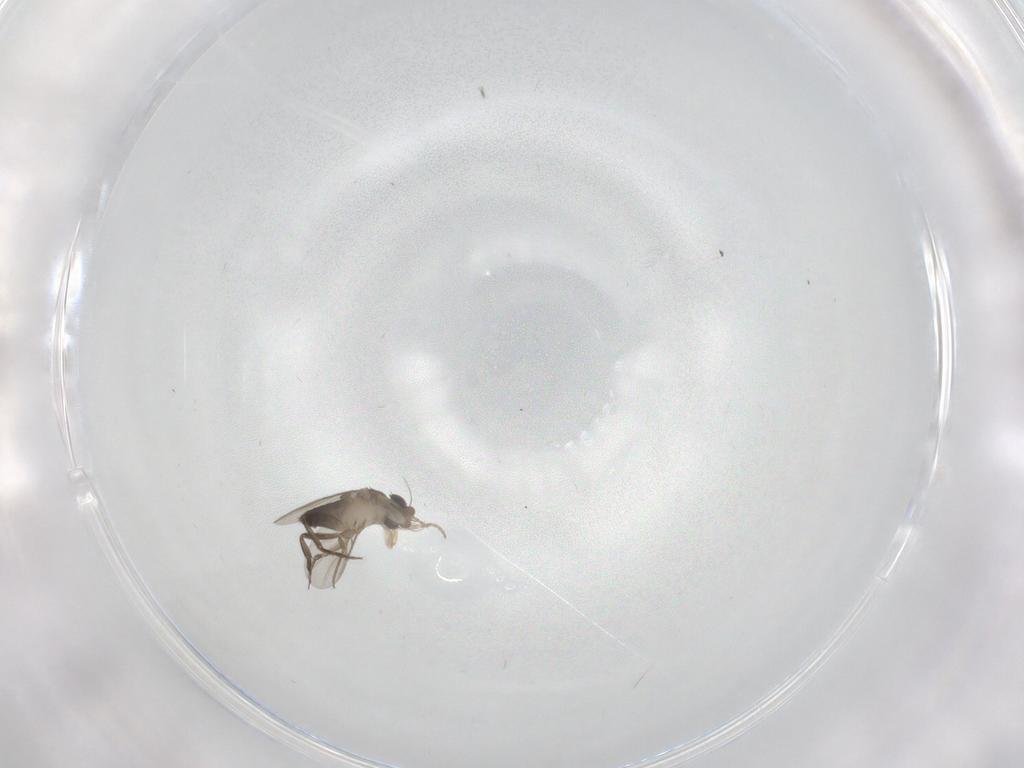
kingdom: Animalia
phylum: Arthropoda
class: Insecta
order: Diptera
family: Phoridae
